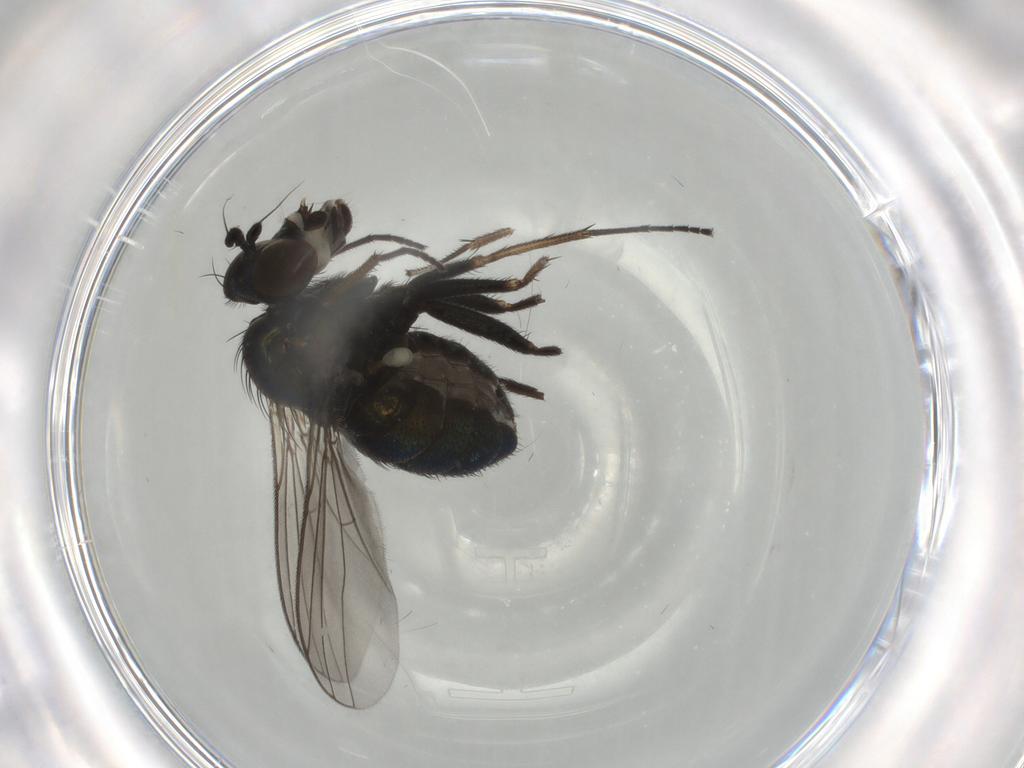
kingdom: Animalia
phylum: Arthropoda
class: Insecta
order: Diptera
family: Dolichopodidae
